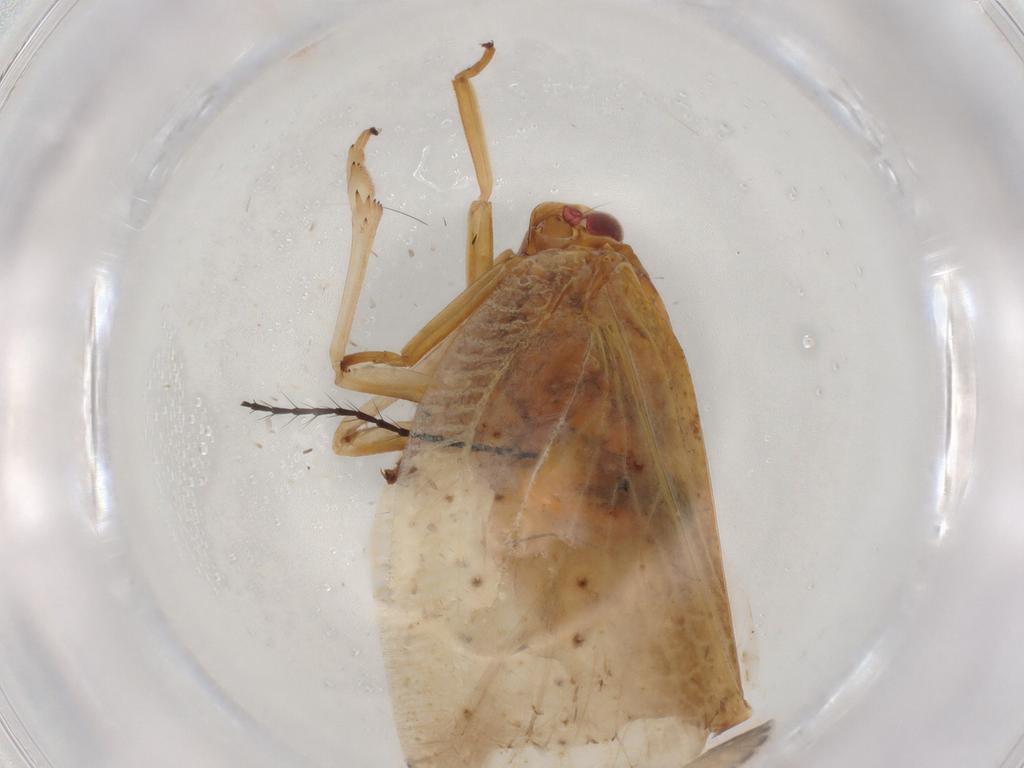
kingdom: Animalia
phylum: Arthropoda
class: Insecta
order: Hemiptera
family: Flatidae
